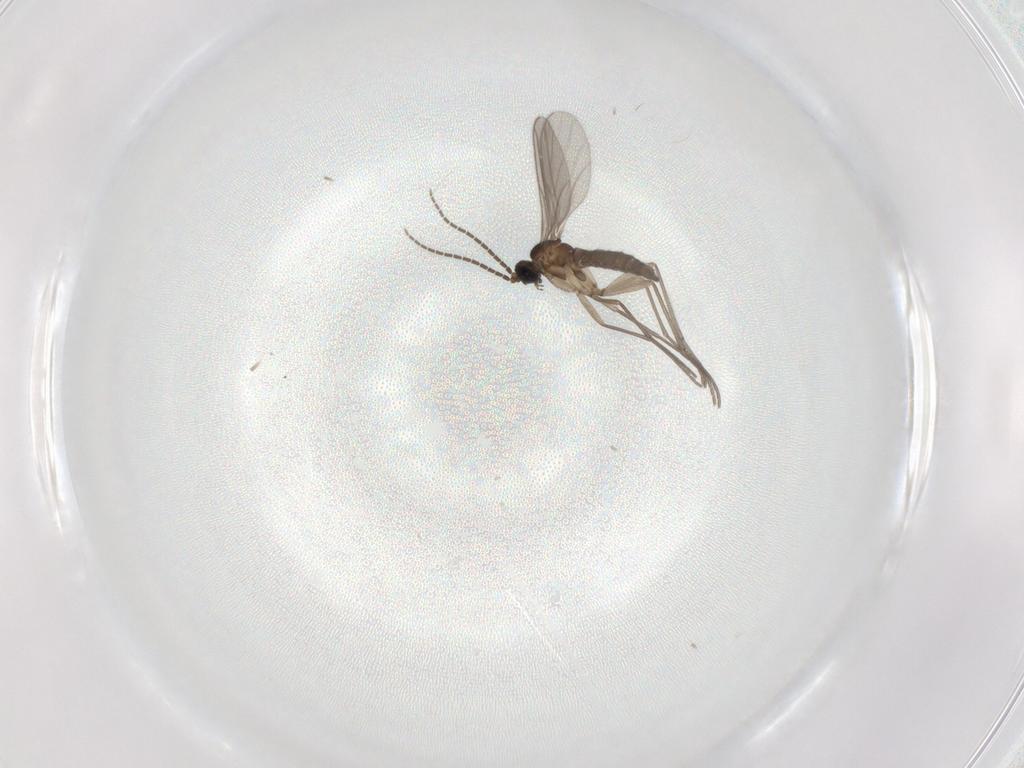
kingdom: Animalia
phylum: Arthropoda
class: Insecta
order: Diptera
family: Sciaridae
